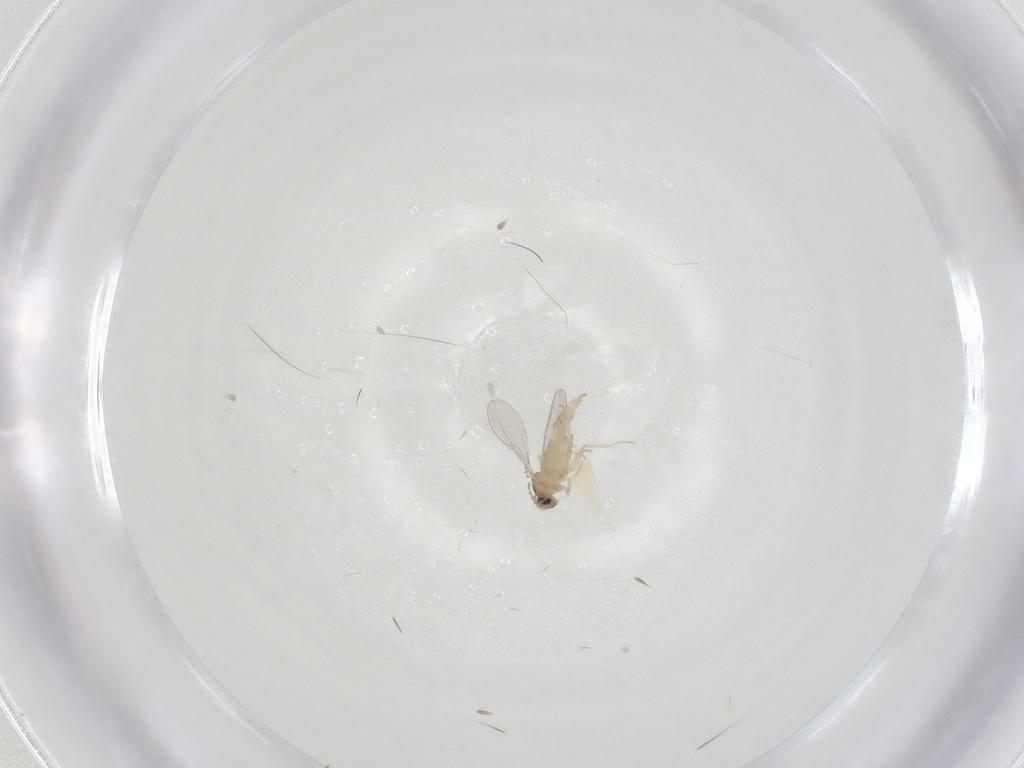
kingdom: Animalia
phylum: Arthropoda
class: Insecta
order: Diptera
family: Cecidomyiidae
